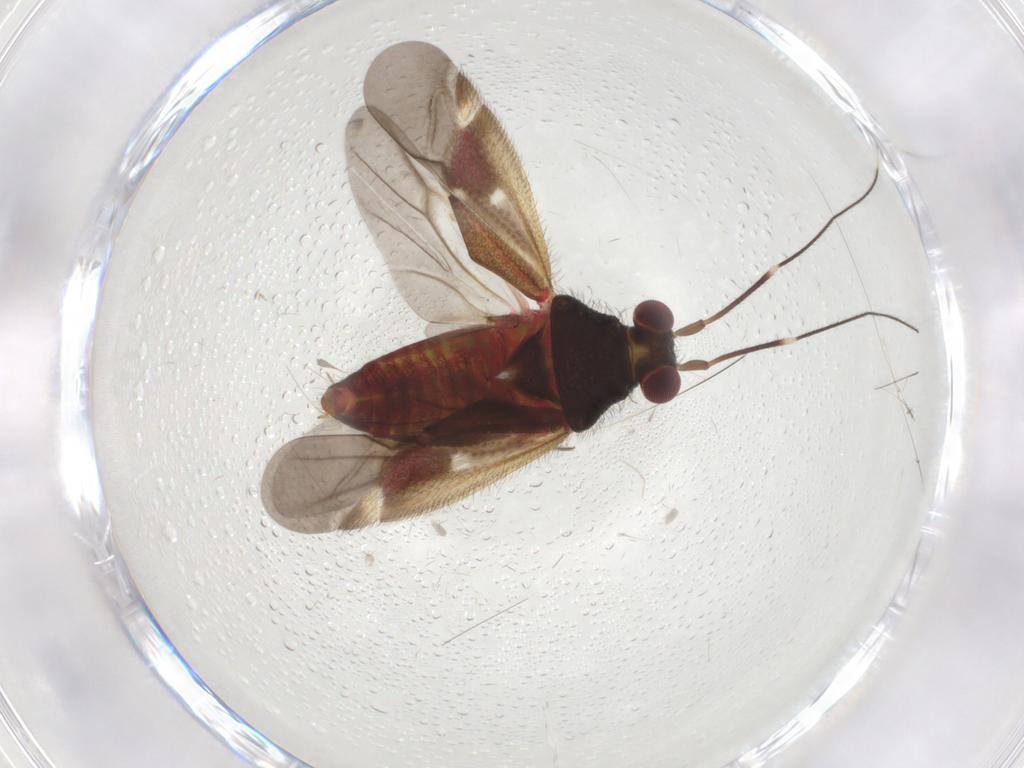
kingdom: Animalia
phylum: Arthropoda
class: Insecta
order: Hemiptera
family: Miridae
